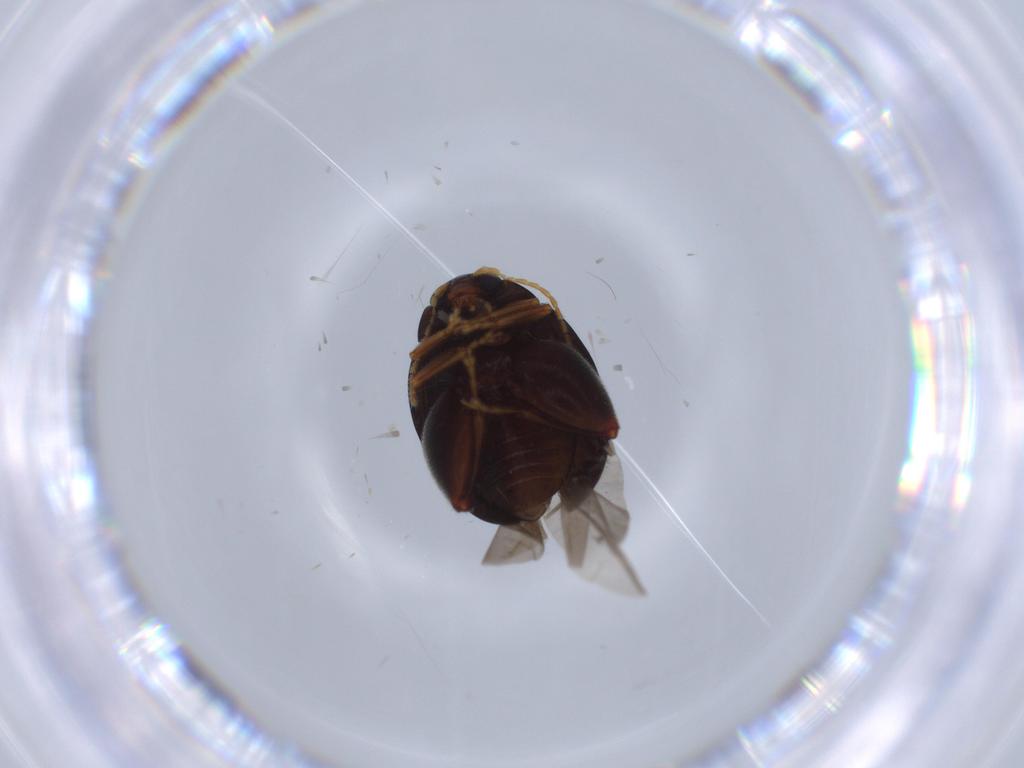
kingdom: Animalia
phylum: Arthropoda
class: Insecta
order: Coleoptera
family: Chrysomelidae
